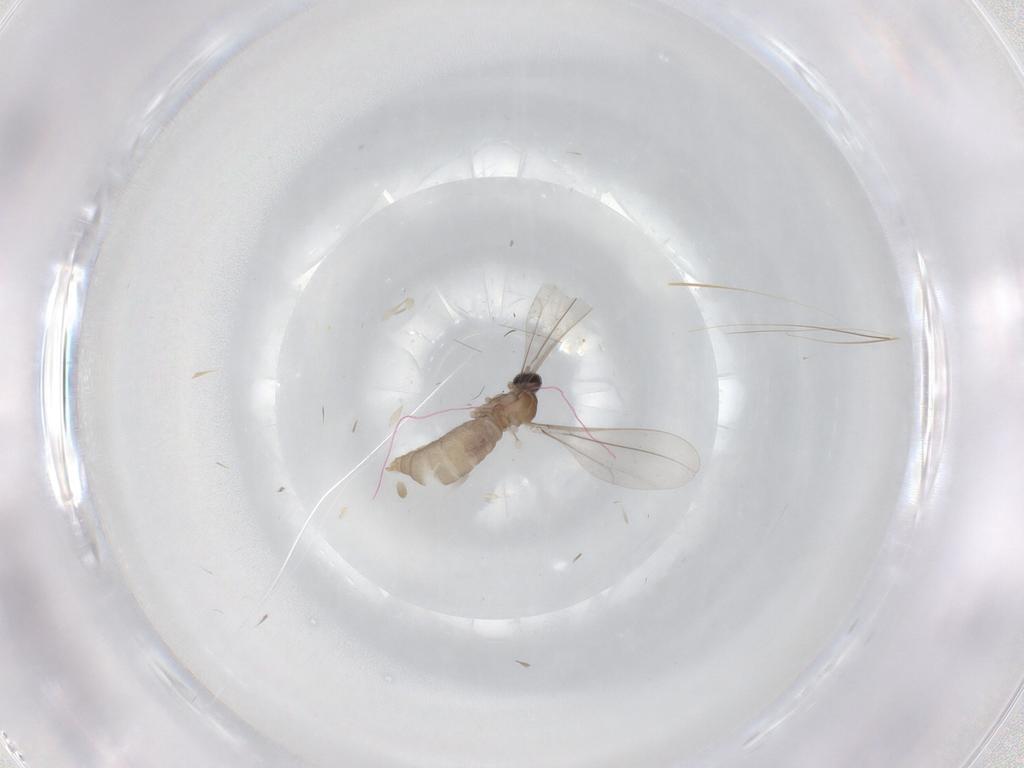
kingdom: Animalia
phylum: Arthropoda
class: Insecta
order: Diptera
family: Cecidomyiidae
